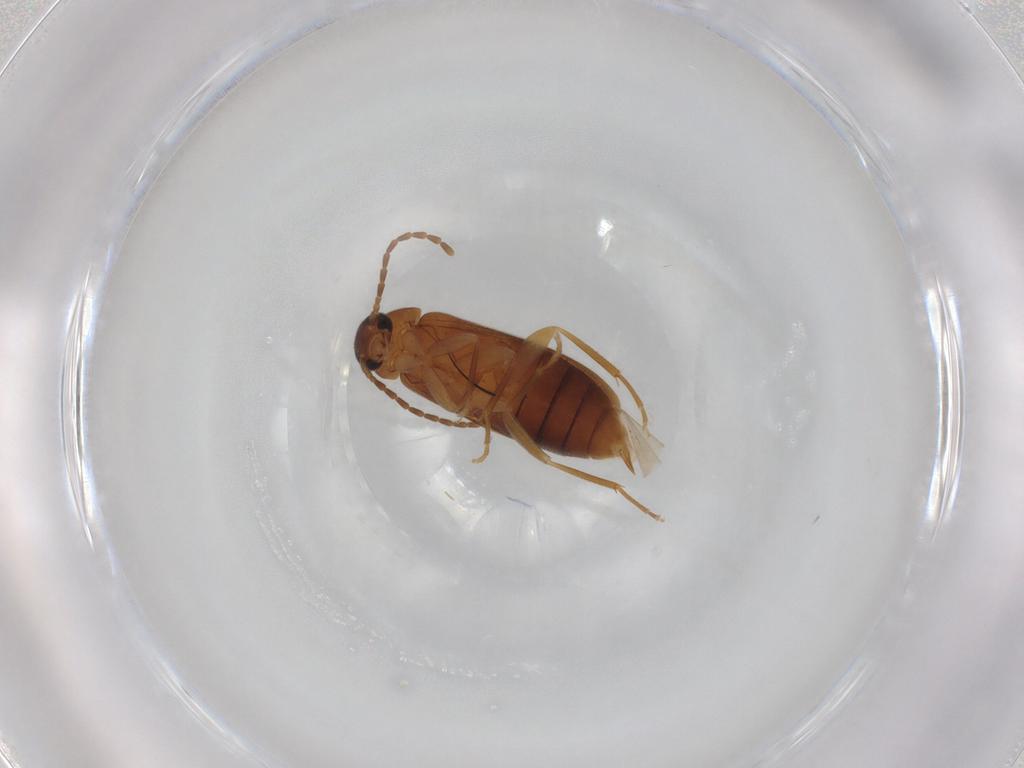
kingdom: Animalia
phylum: Arthropoda
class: Insecta
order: Coleoptera
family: Scraptiidae
